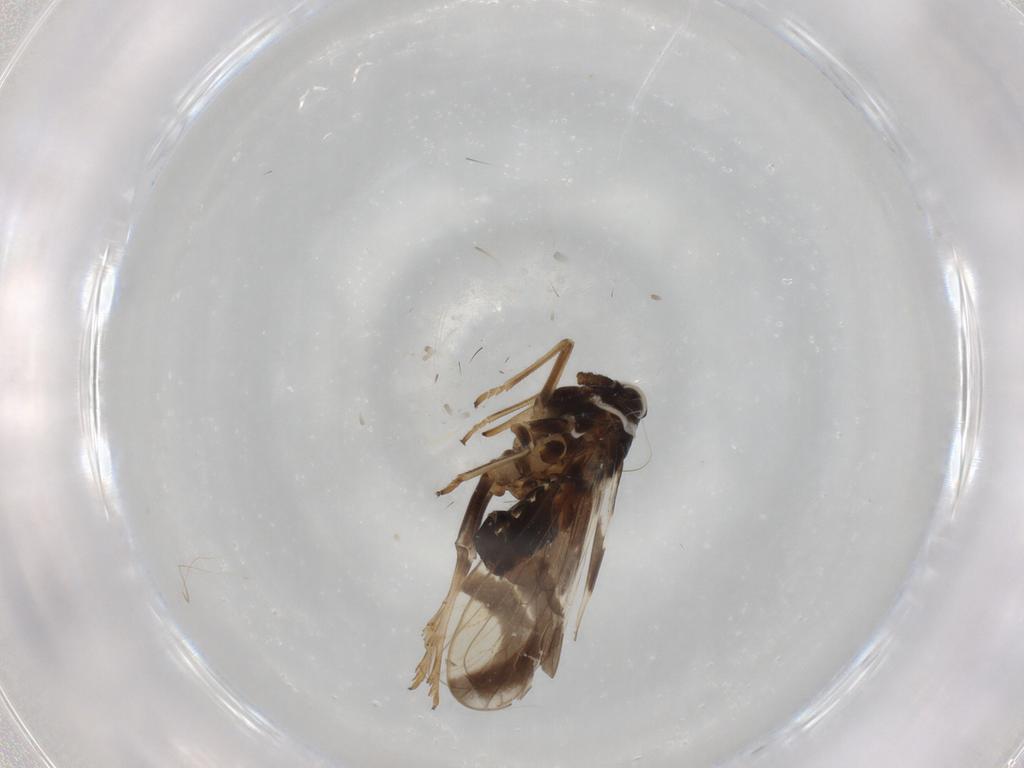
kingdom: Animalia
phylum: Arthropoda
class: Insecta
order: Hemiptera
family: Delphacidae
